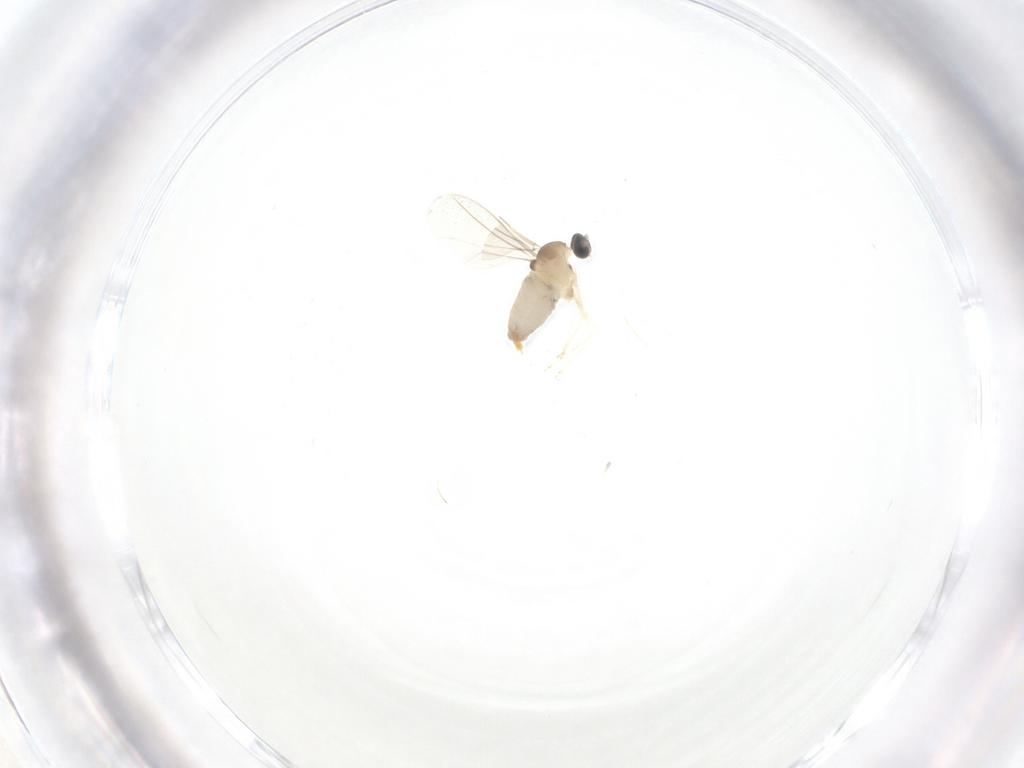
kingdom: Animalia
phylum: Arthropoda
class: Insecta
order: Diptera
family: Cecidomyiidae
